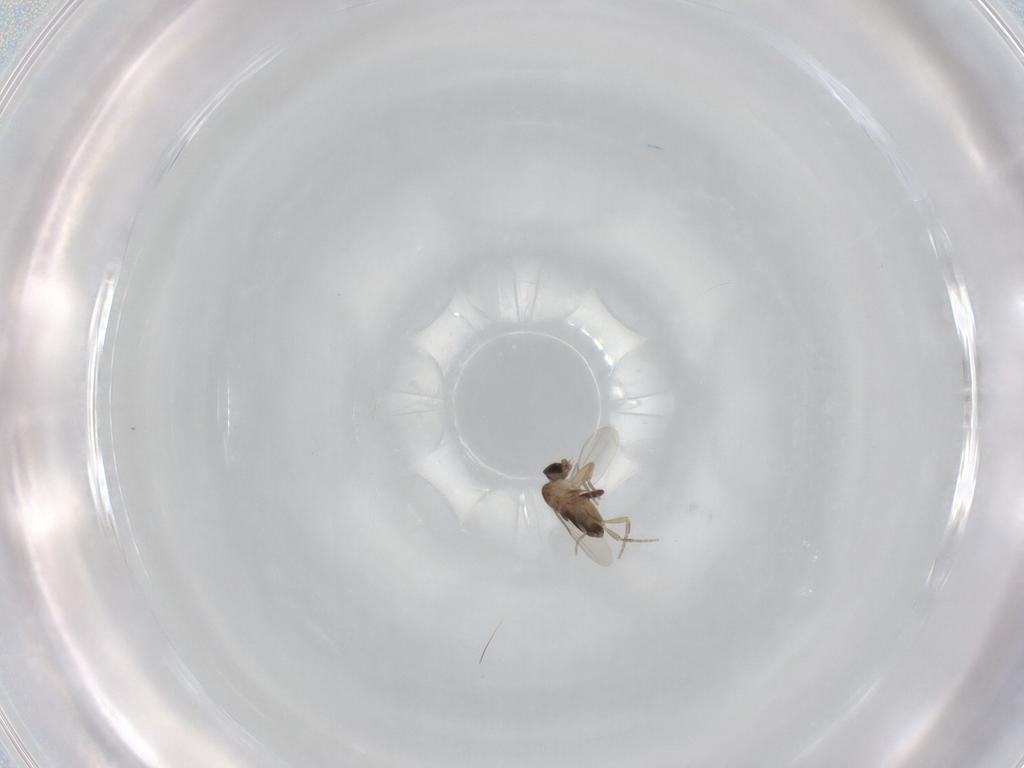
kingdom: Animalia
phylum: Arthropoda
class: Insecta
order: Diptera
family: Phoridae
